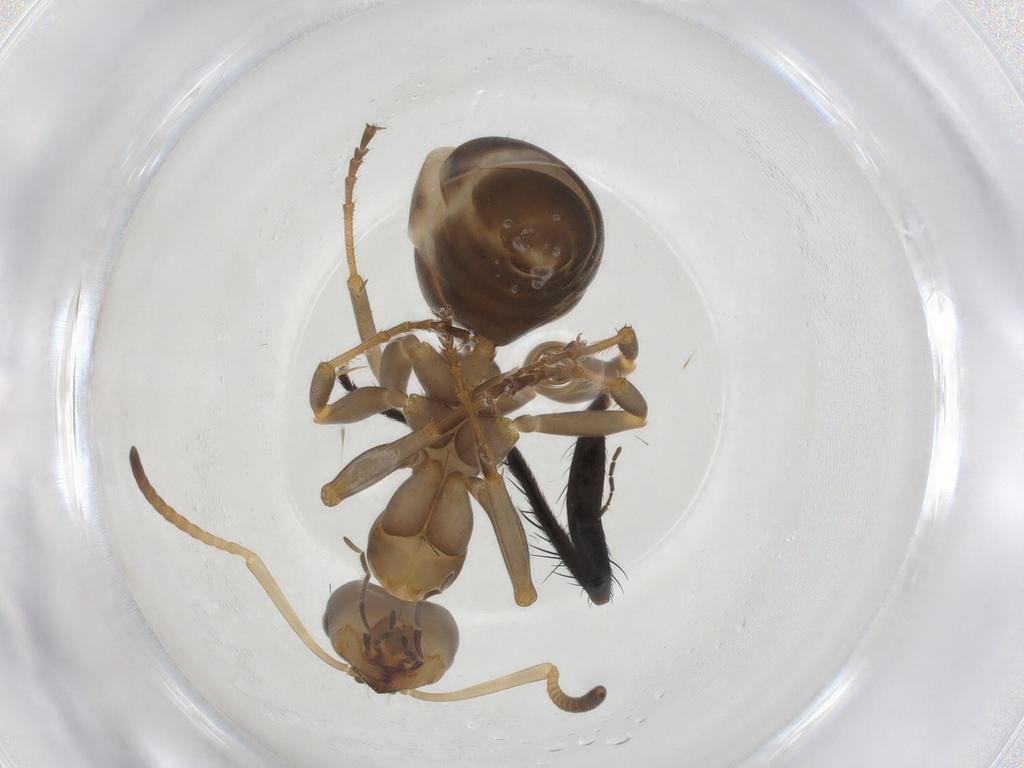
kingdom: Animalia
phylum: Arthropoda
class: Insecta
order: Hymenoptera
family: Formicidae
